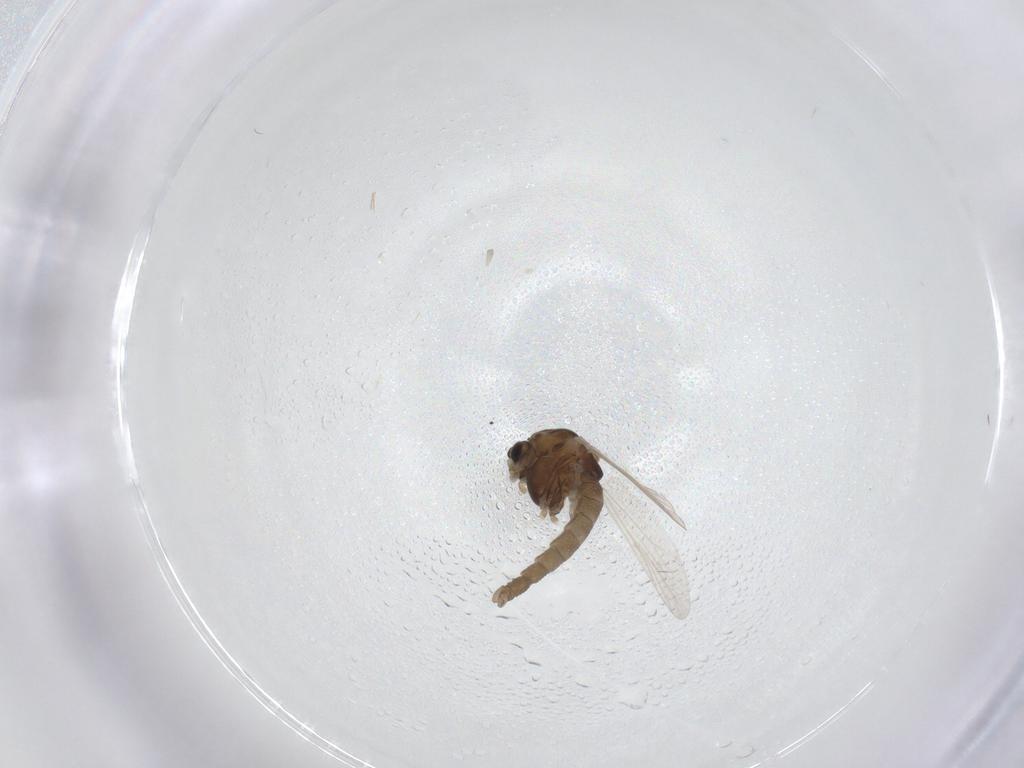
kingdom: Animalia
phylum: Arthropoda
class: Insecta
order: Diptera
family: Chironomidae
